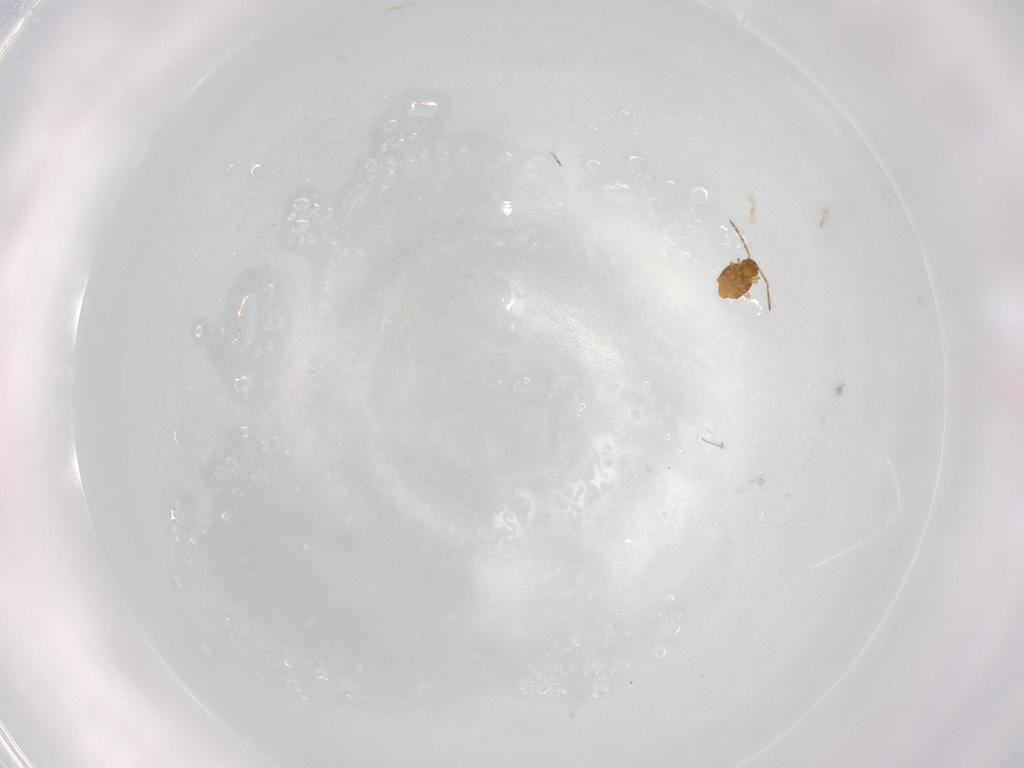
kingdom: Animalia
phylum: Arthropoda
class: Collembola
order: Symphypleona
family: Katiannidae
